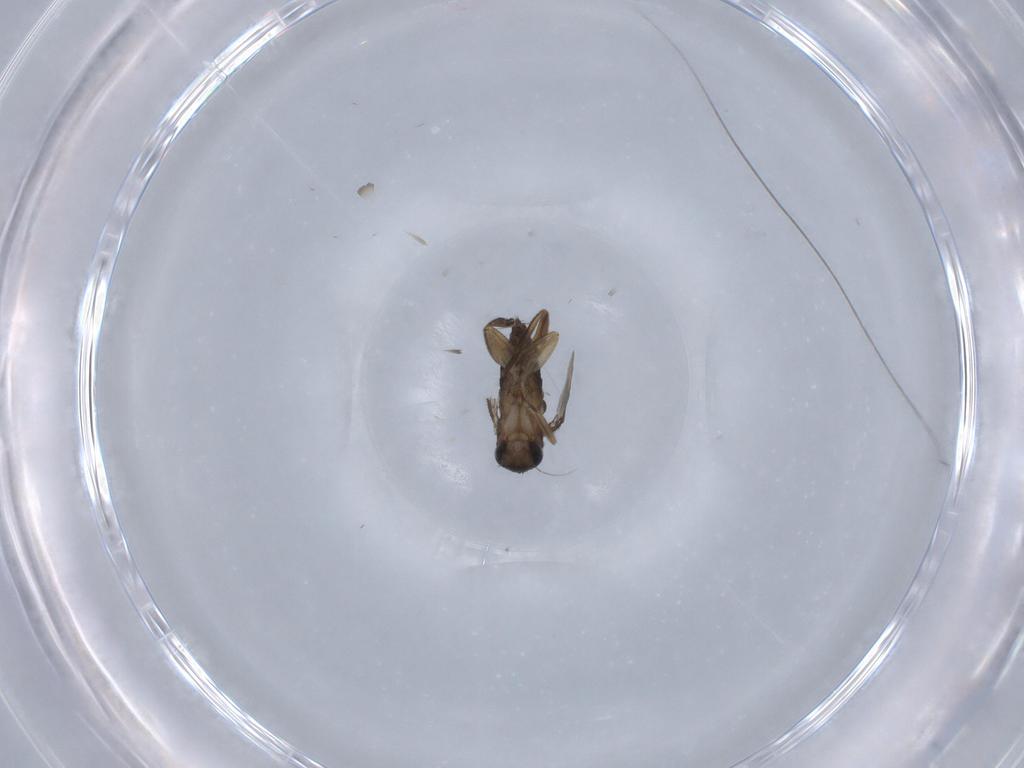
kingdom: Animalia
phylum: Arthropoda
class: Insecta
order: Diptera
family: Phoridae
